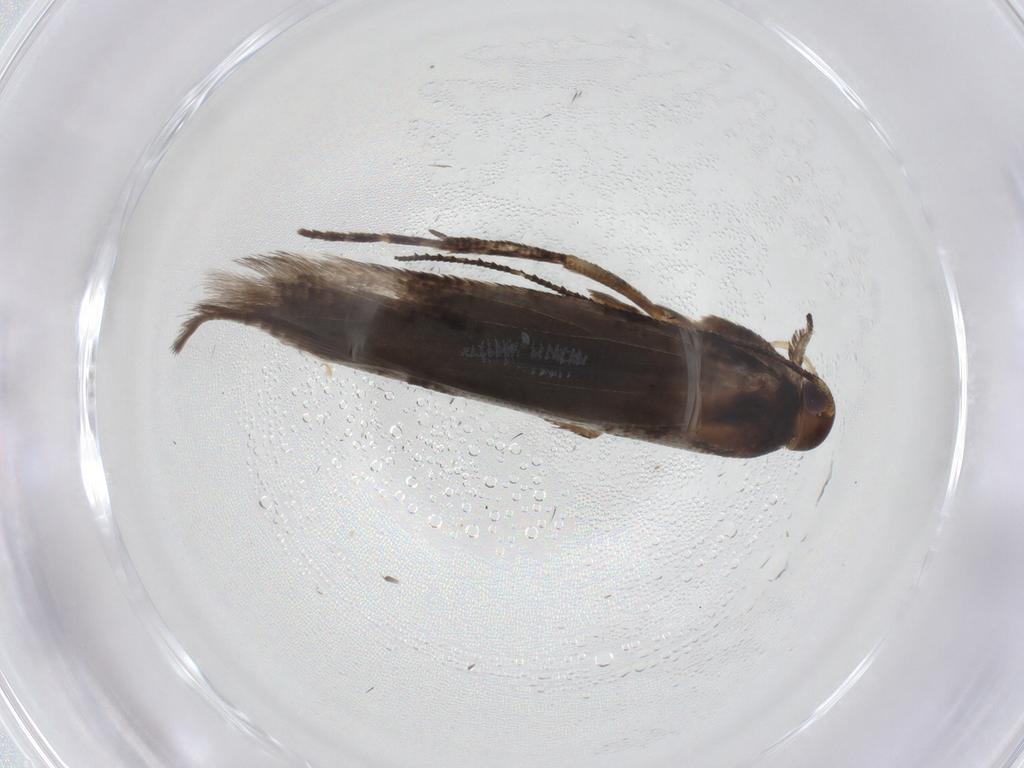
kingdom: Animalia
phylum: Arthropoda
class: Insecta
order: Lepidoptera
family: Gelechiidae
